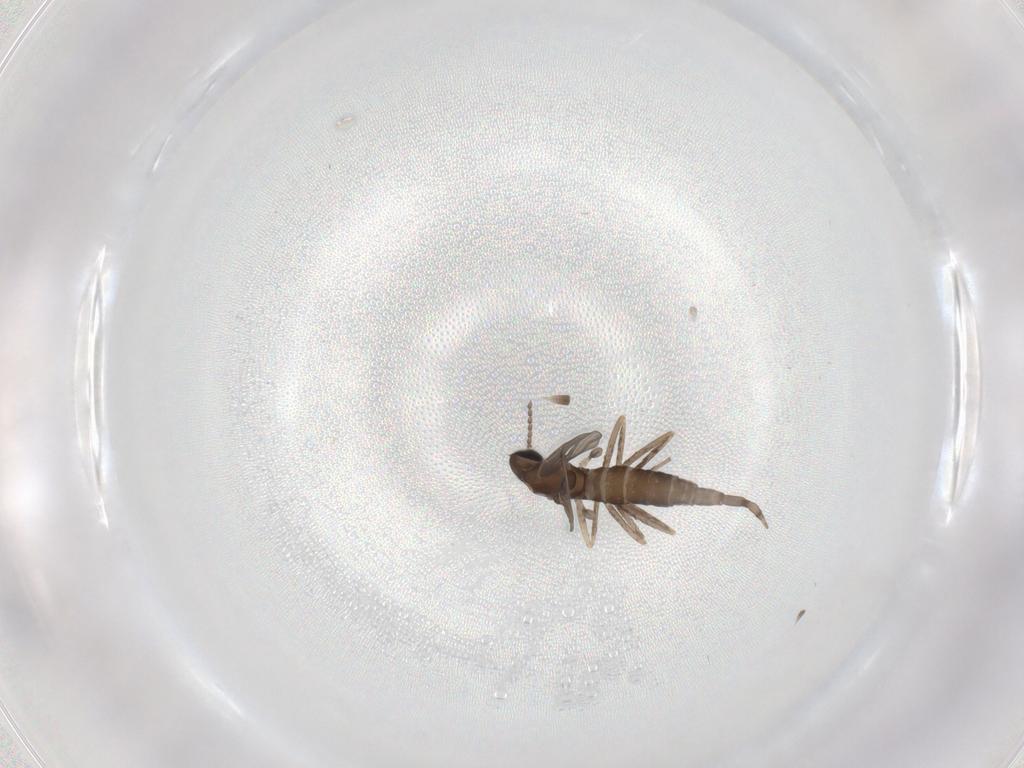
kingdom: Animalia
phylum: Arthropoda
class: Insecta
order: Diptera
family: Cecidomyiidae
